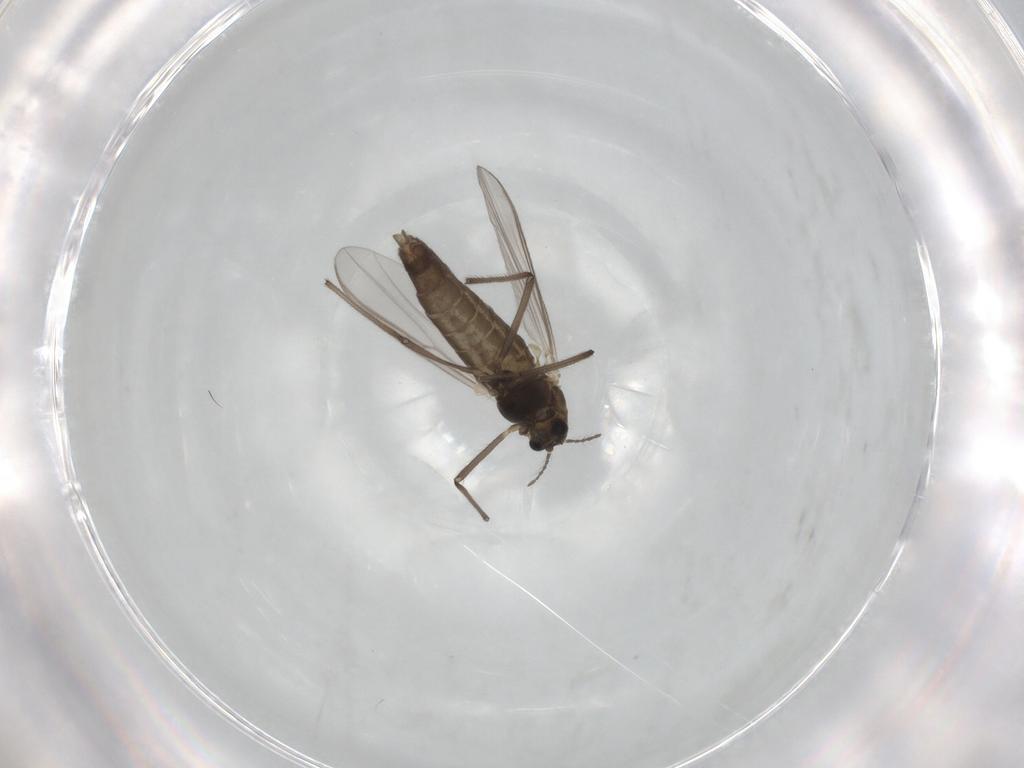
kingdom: Animalia
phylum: Arthropoda
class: Insecta
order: Diptera
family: Chironomidae
